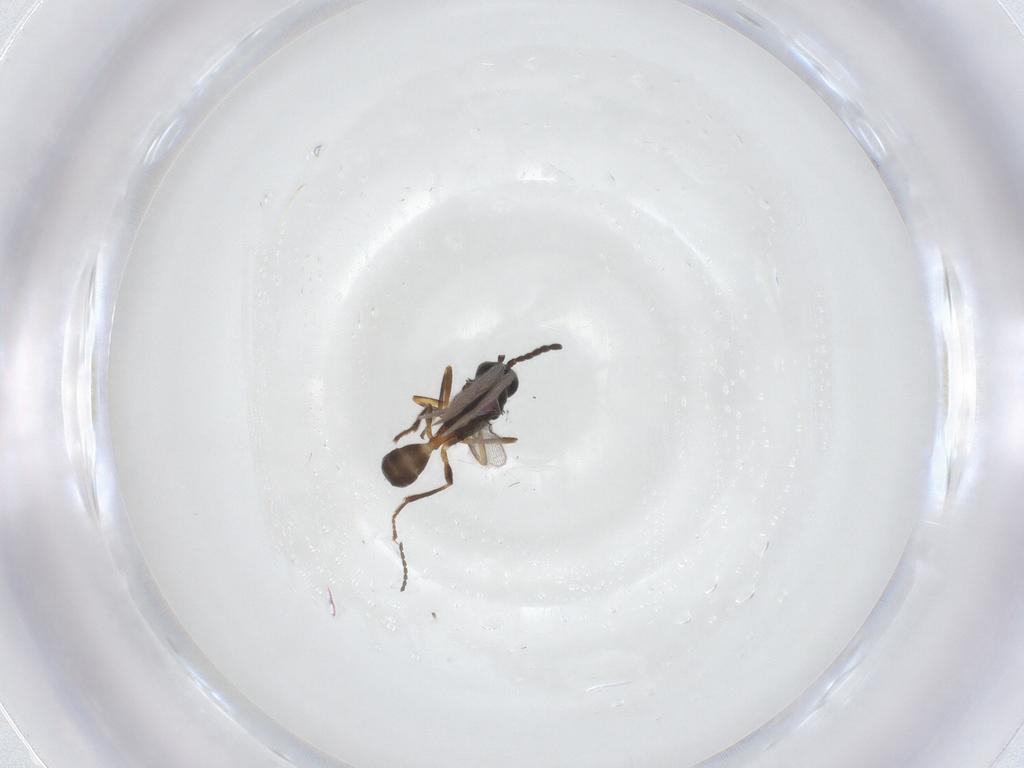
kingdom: Animalia
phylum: Arthropoda
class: Insecta
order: Hymenoptera
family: Braconidae
